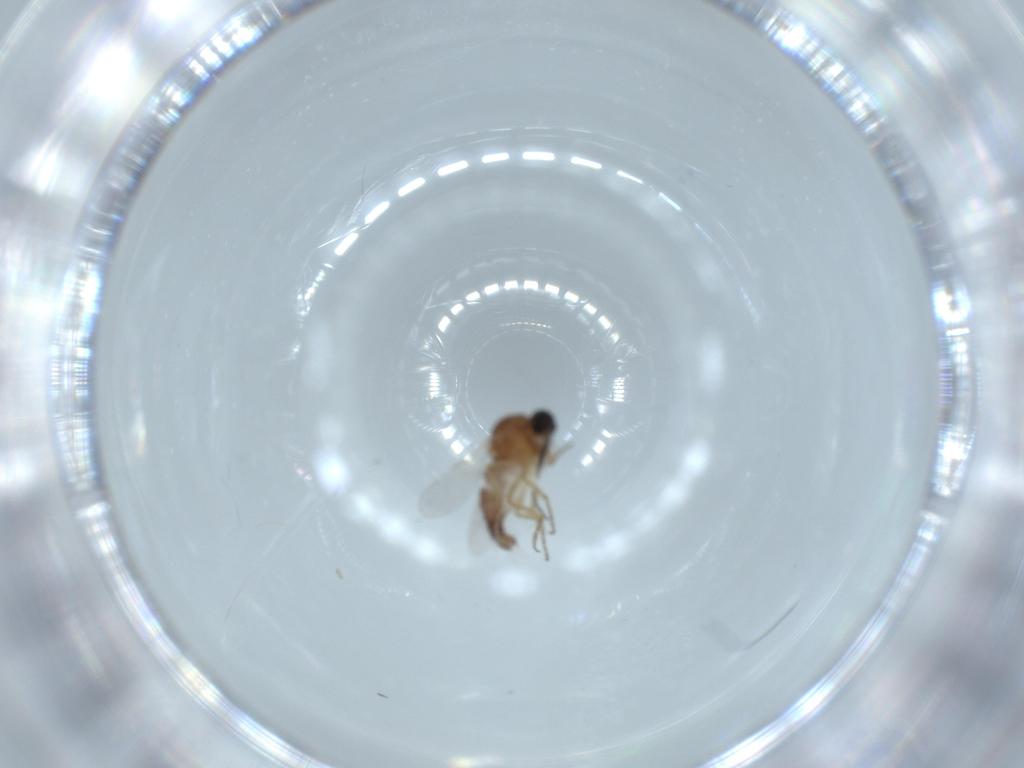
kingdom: Animalia
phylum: Arthropoda
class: Insecta
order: Diptera
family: Ceratopogonidae
